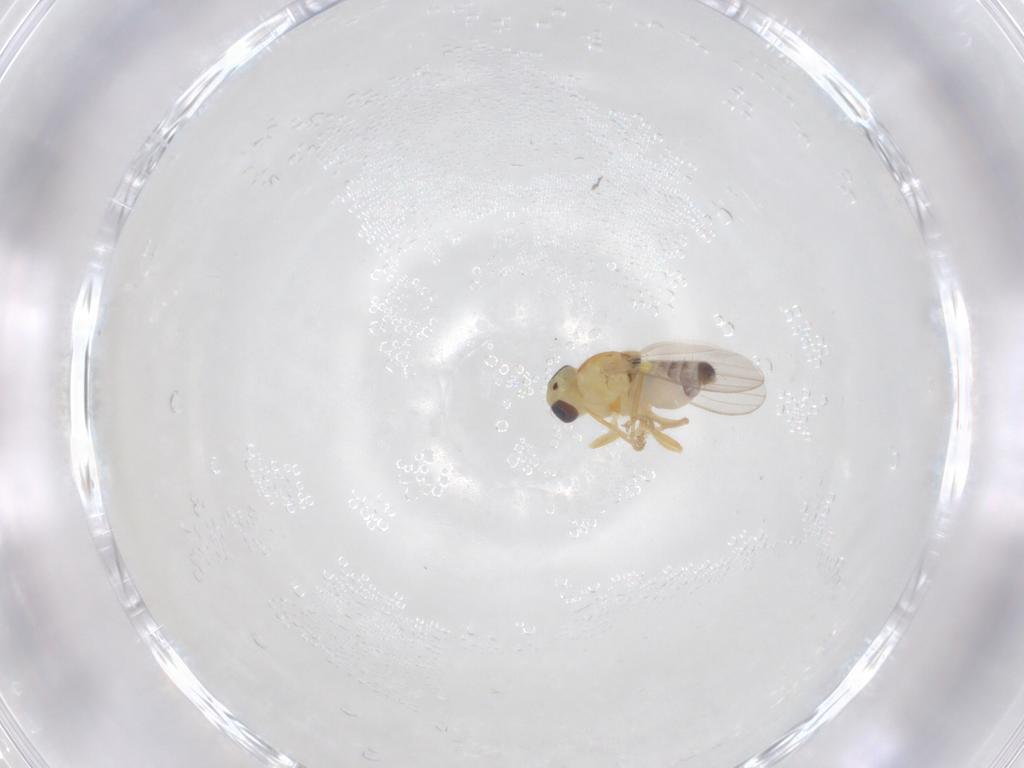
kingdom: Animalia
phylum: Arthropoda
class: Insecta
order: Diptera
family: Chyromyidae
